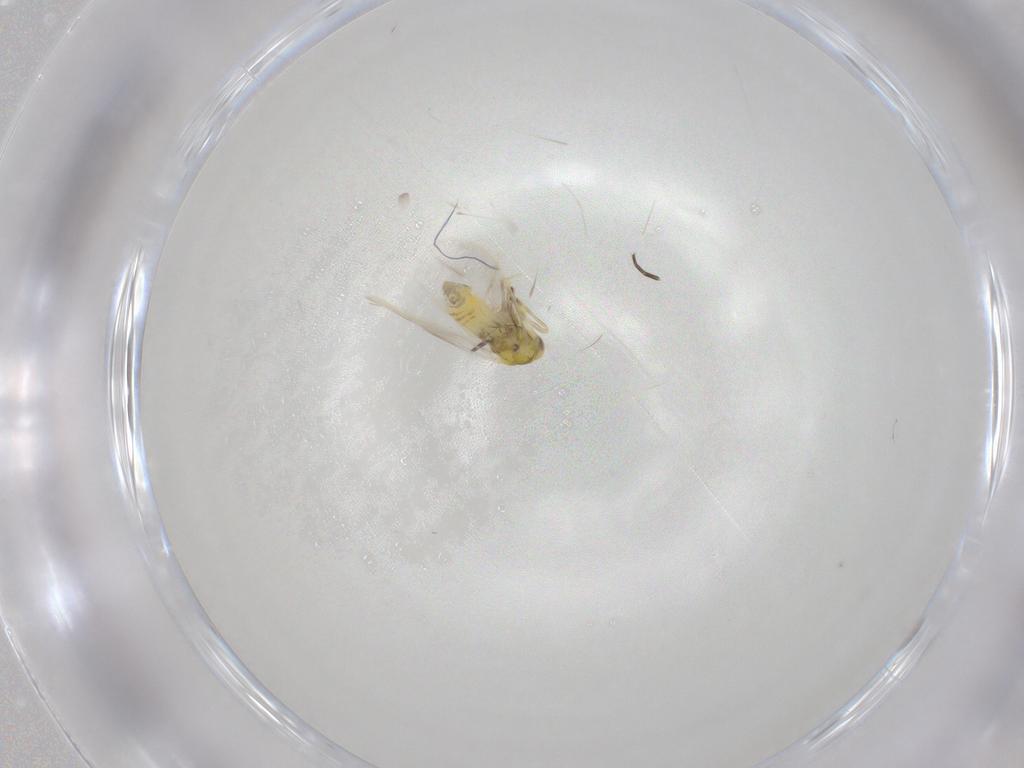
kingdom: Animalia
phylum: Arthropoda
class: Insecta
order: Hemiptera
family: Aleyrodidae
